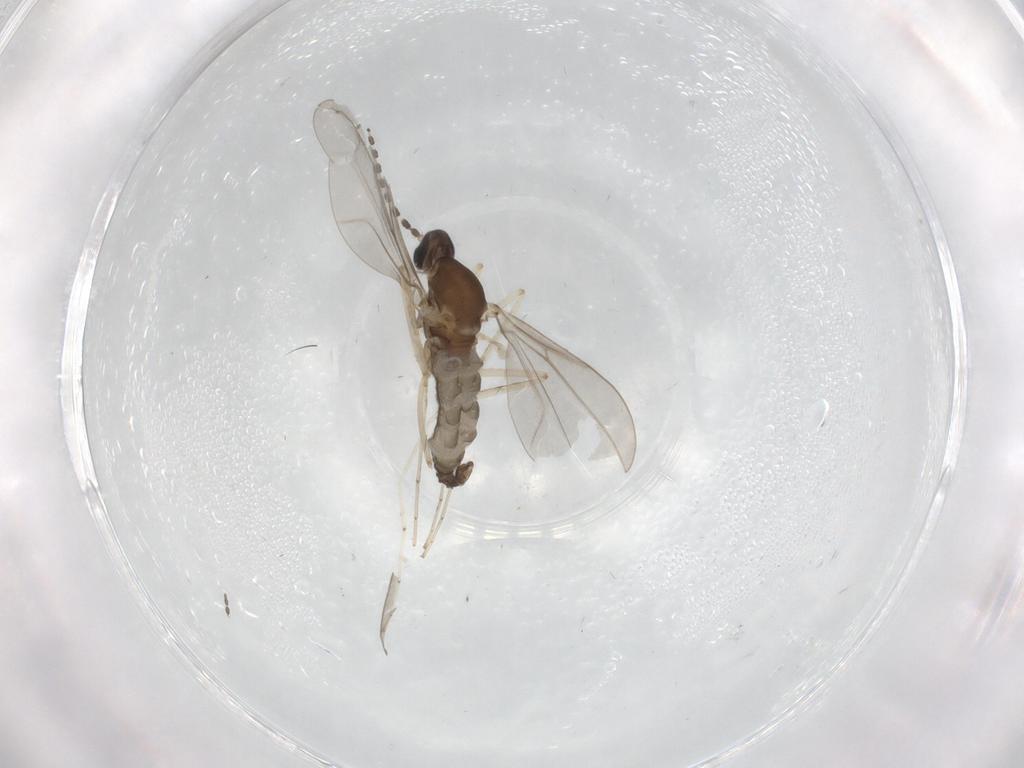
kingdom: Animalia
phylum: Arthropoda
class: Insecta
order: Diptera
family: Cecidomyiidae
